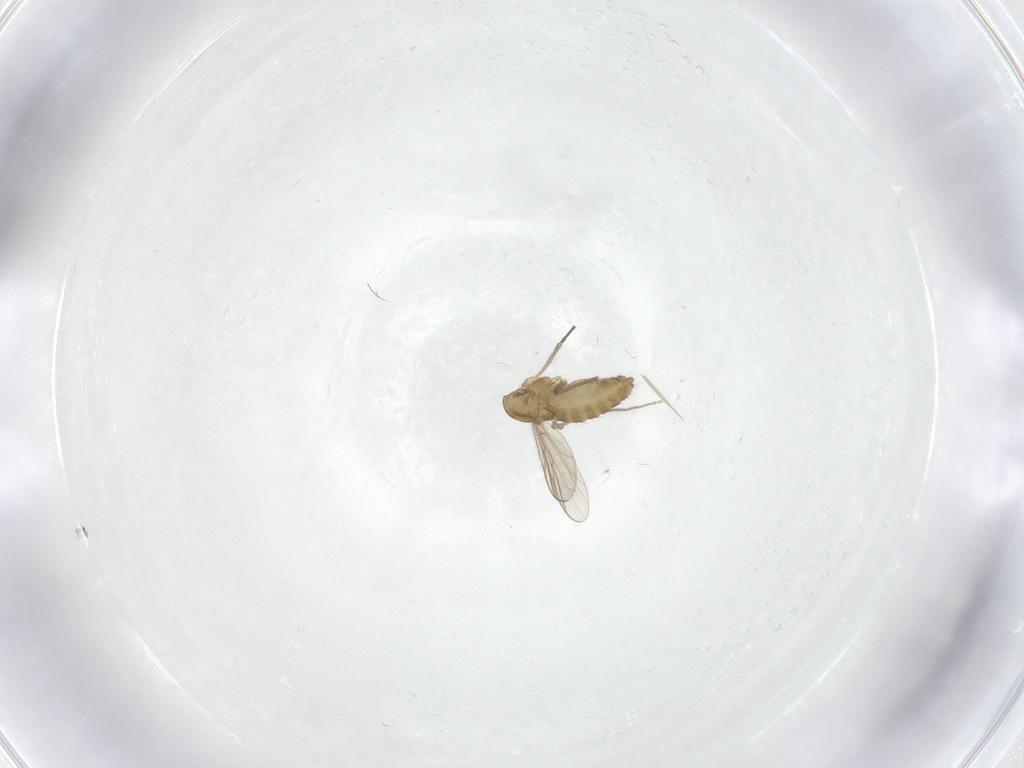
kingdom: Animalia
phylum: Arthropoda
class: Insecta
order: Diptera
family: Chironomidae
